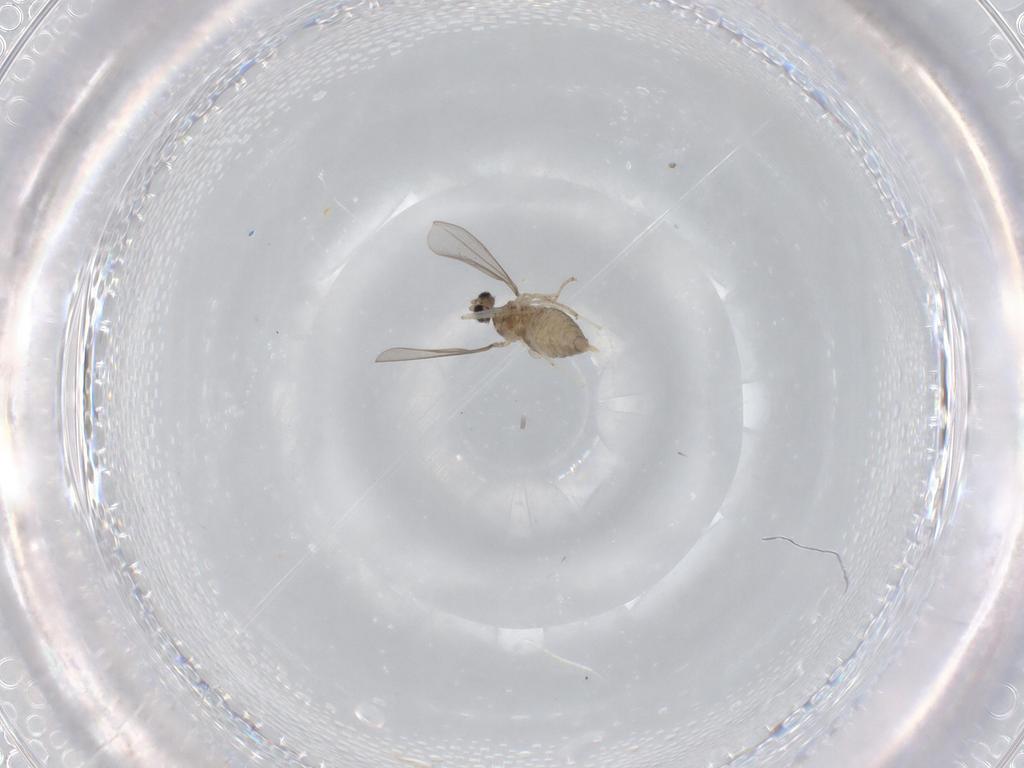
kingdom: Animalia
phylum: Arthropoda
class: Insecta
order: Diptera
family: Cecidomyiidae
